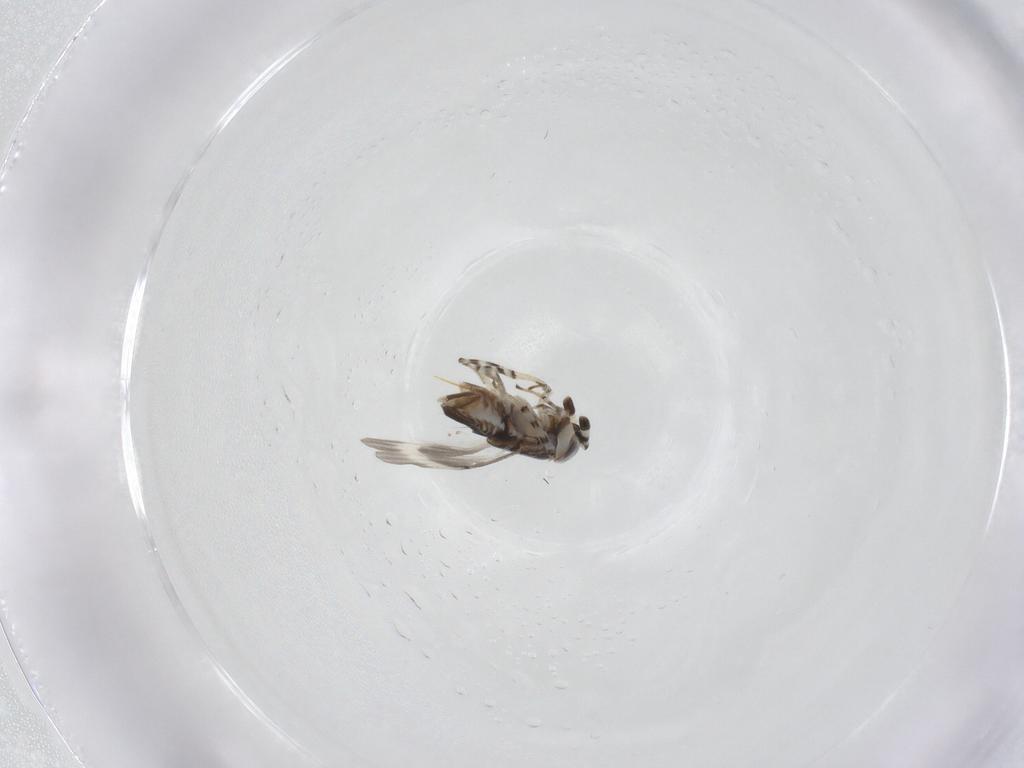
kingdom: Animalia
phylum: Arthropoda
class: Insecta
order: Hymenoptera
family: Encyrtidae
